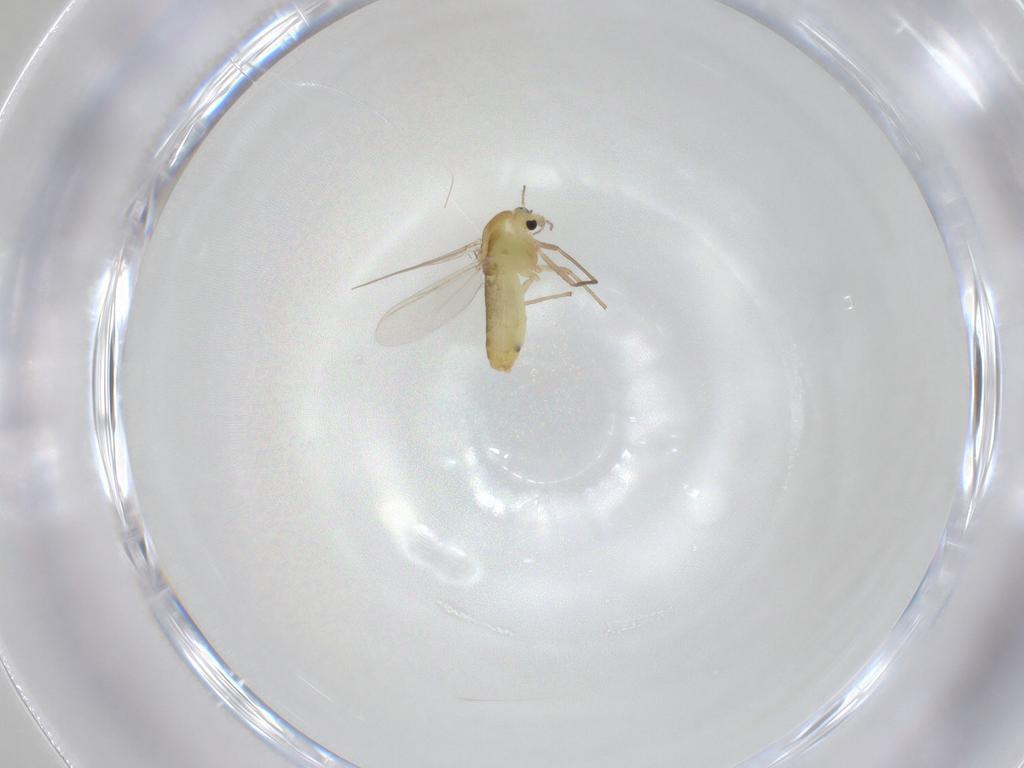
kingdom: Animalia
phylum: Arthropoda
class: Insecta
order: Diptera
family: Chironomidae
